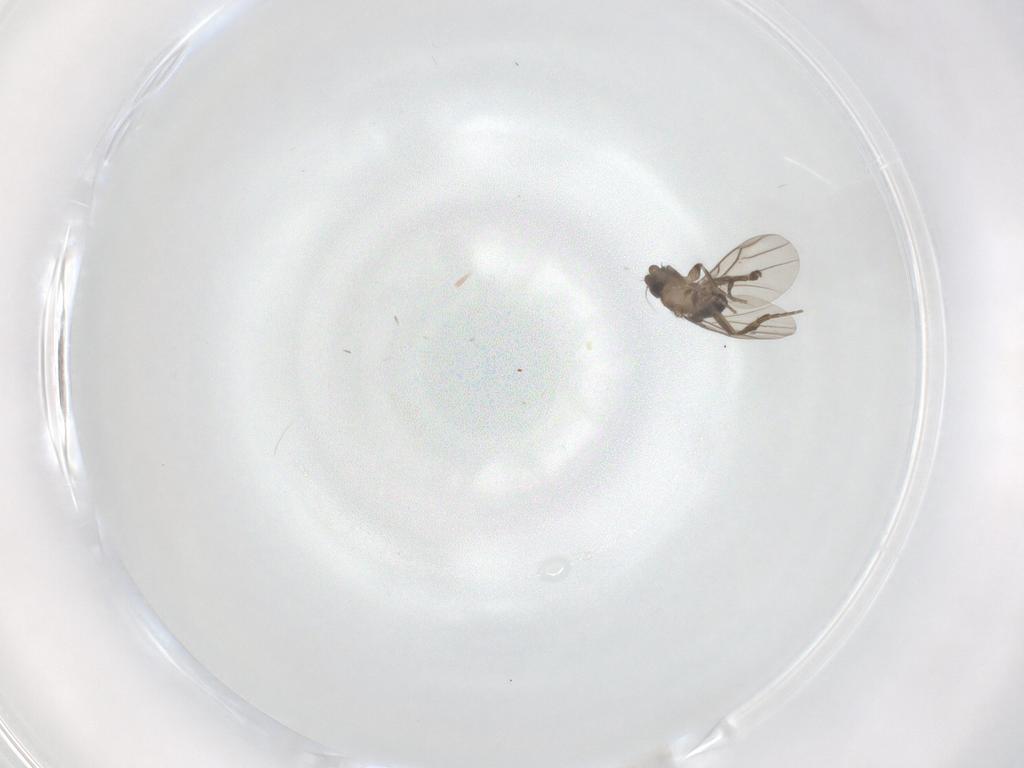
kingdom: Animalia
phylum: Arthropoda
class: Insecta
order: Diptera
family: Phoridae
